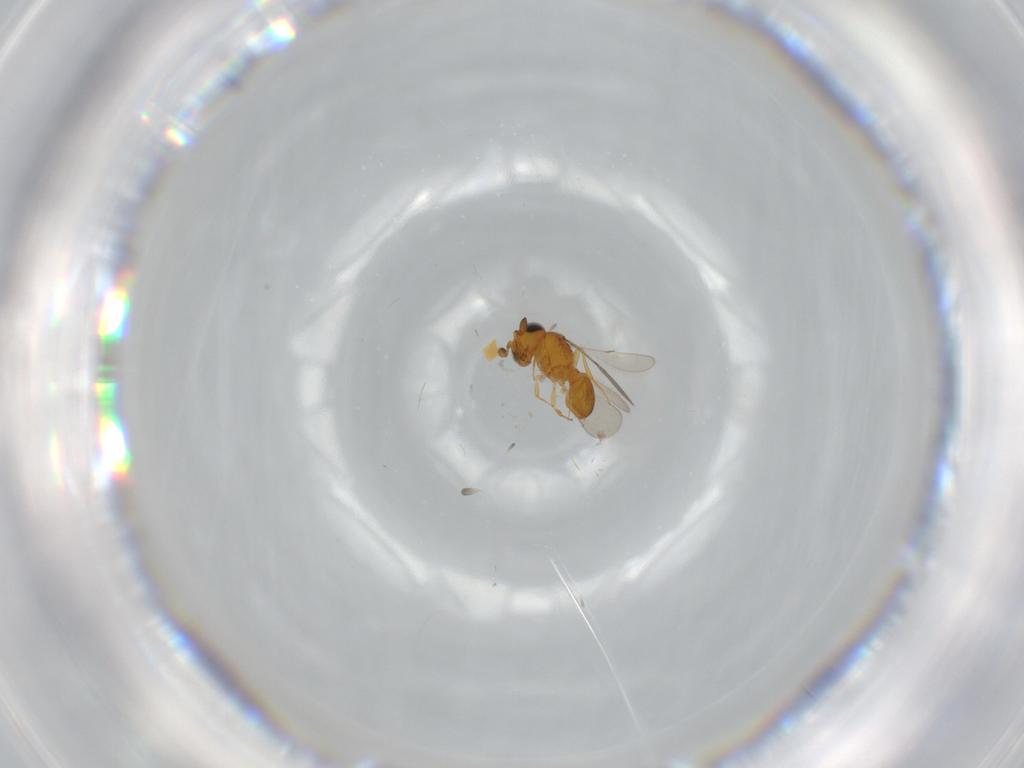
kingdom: Animalia
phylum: Arthropoda
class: Insecta
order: Hymenoptera
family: Scelionidae
